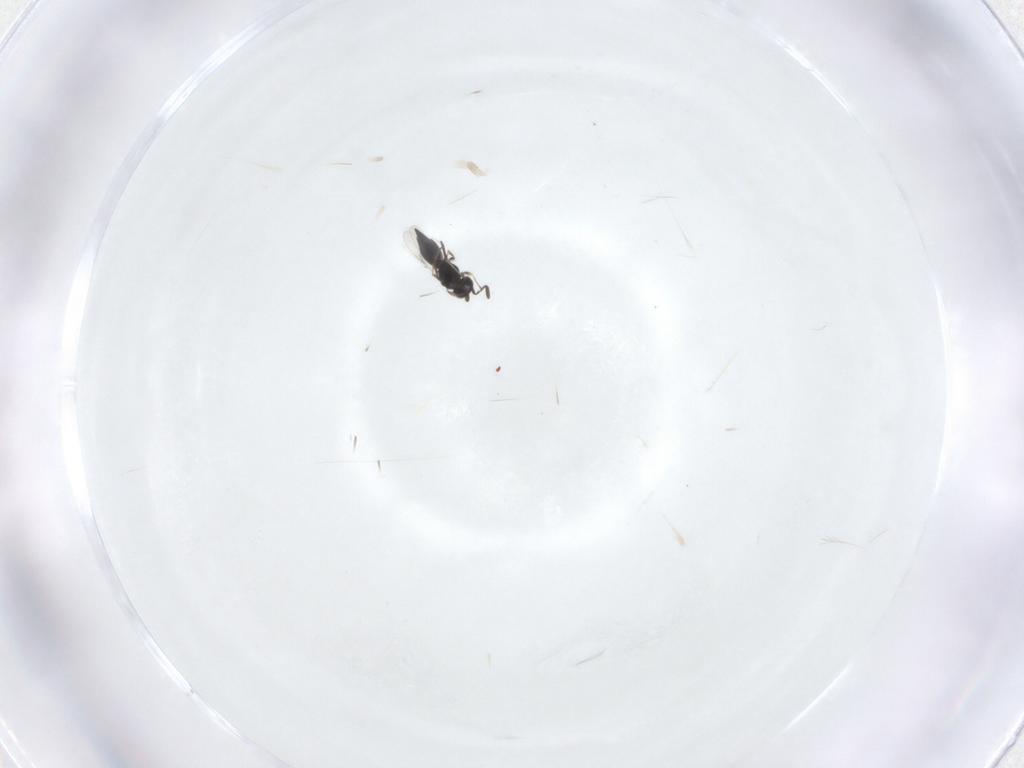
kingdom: Animalia
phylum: Arthropoda
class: Insecta
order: Hymenoptera
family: Scelionidae
